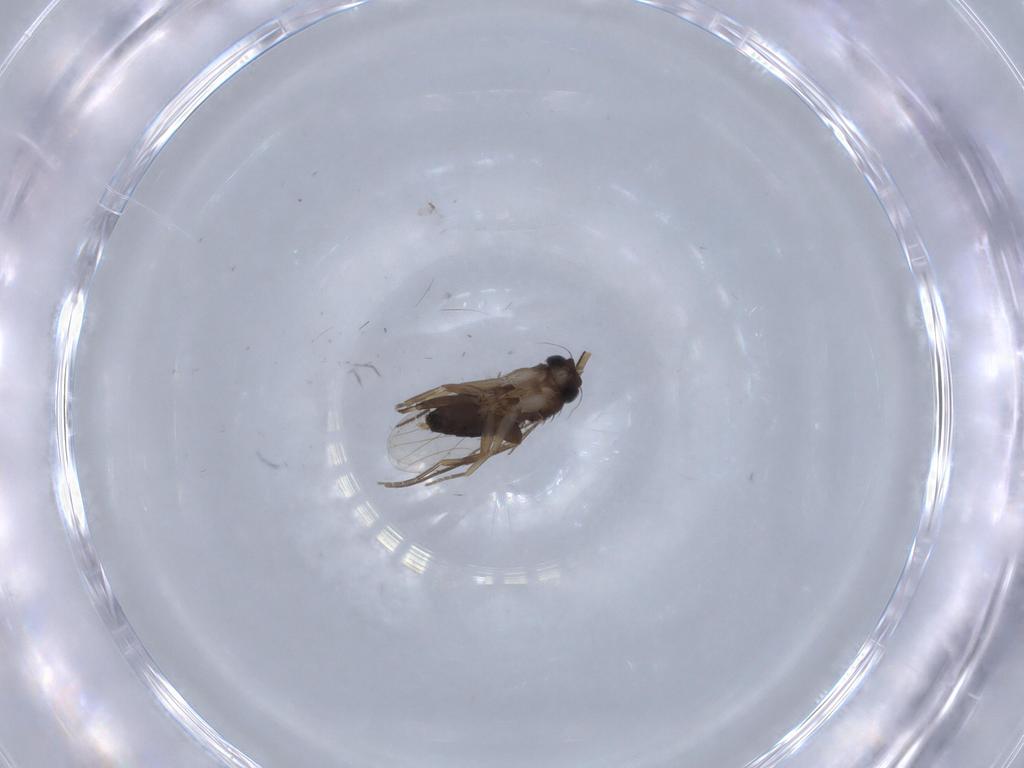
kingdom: Animalia
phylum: Arthropoda
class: Insecta
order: Diptera
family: Phoridae
